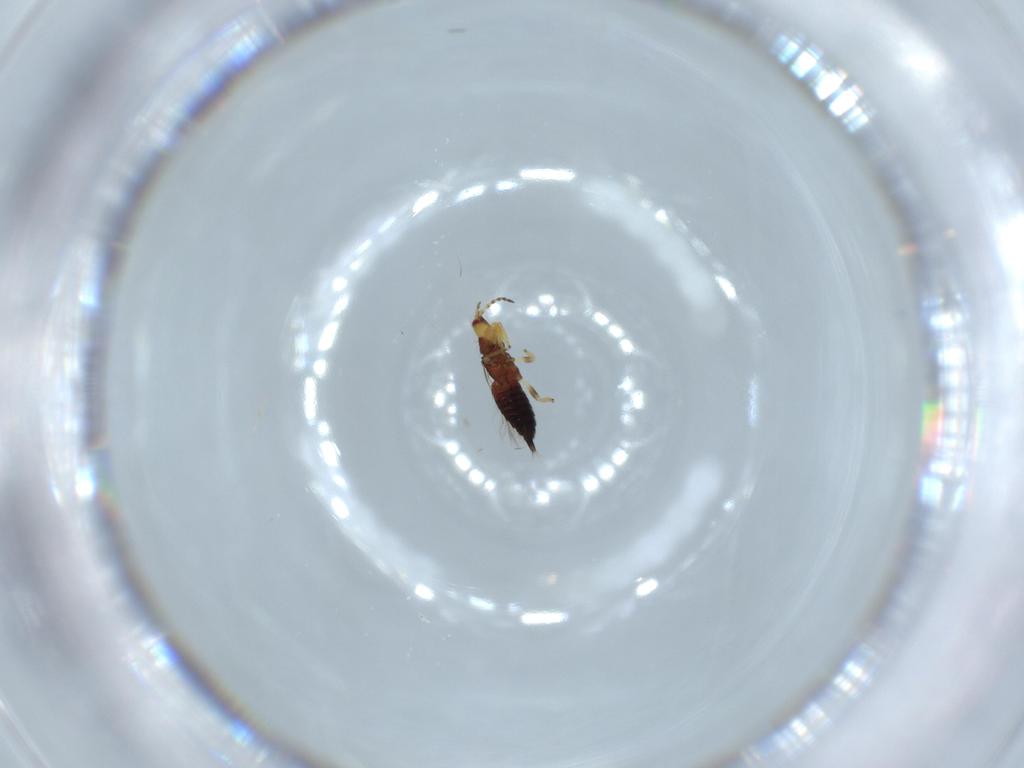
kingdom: Animalia
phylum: Arthropoda
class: Insecta
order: Thysanoptera
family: Phlaeothripidae
